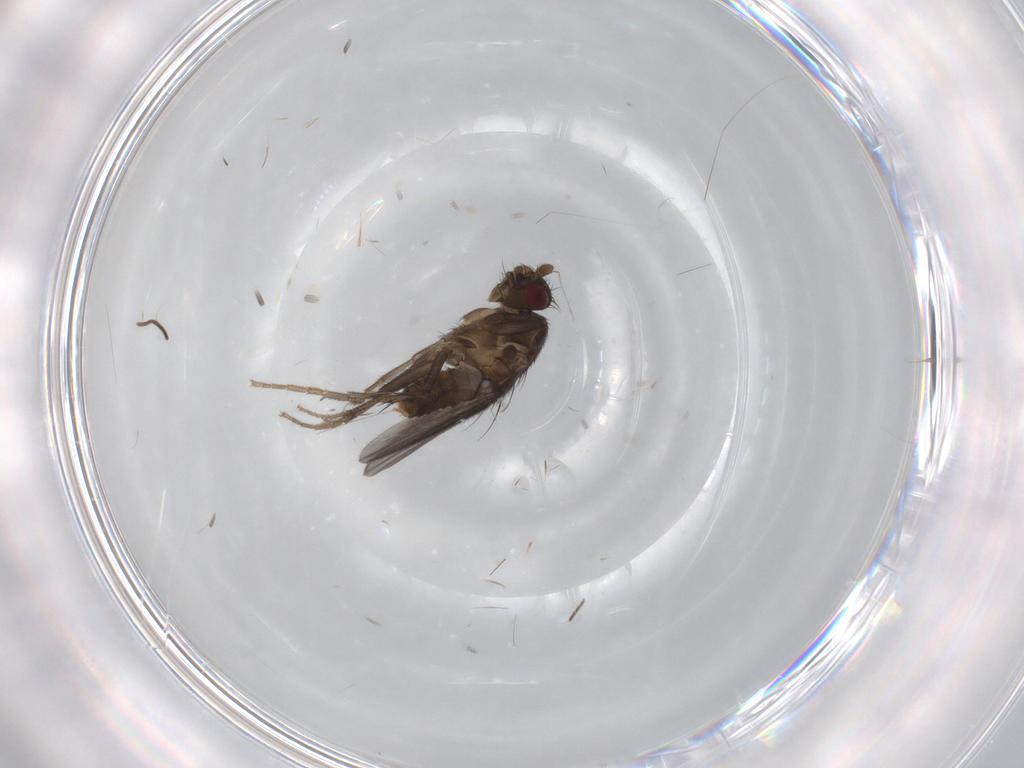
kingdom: Animalia
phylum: Arthropoda
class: Insecta
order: Diptera
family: Sphaeroceridae
